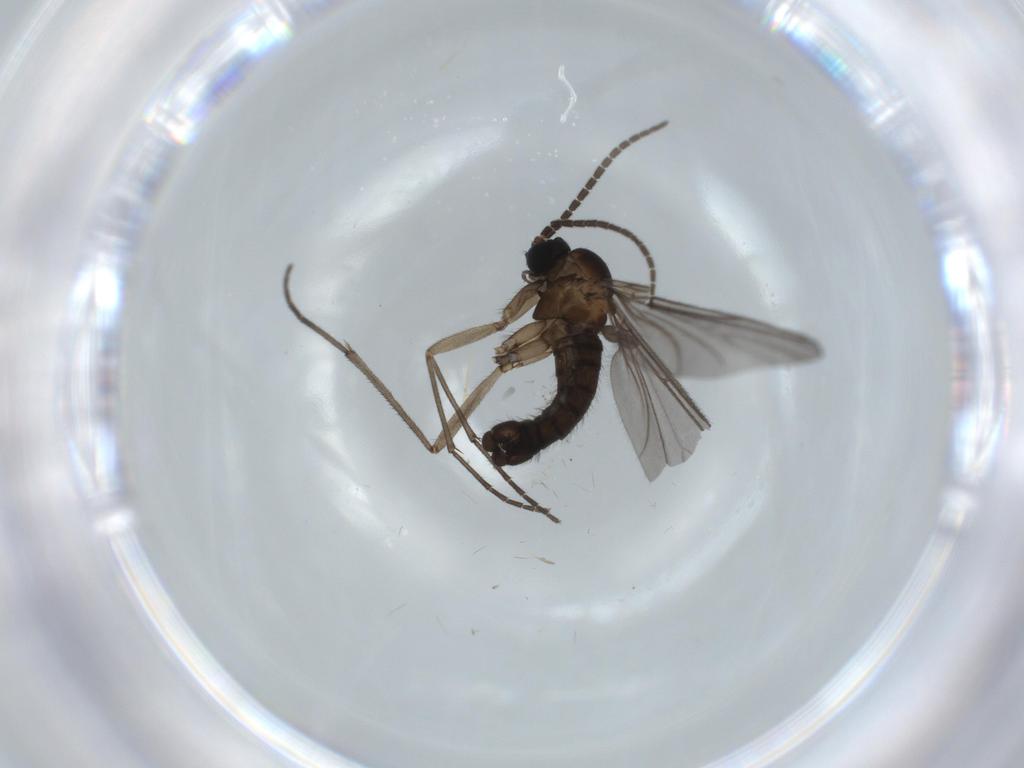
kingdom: Animalia
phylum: Arthropoda
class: Insecta
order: Diptera
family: Sciaridae
